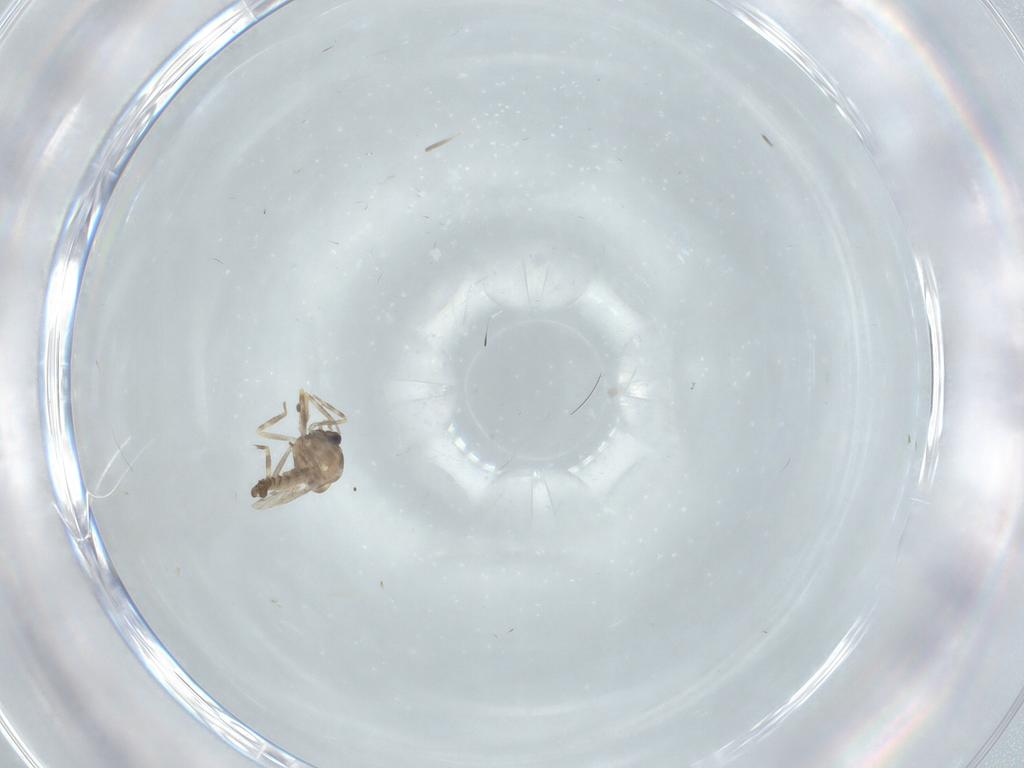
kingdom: Animalia
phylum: Arthropoda
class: Insecta
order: Diptera
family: Ceratopogonidae
